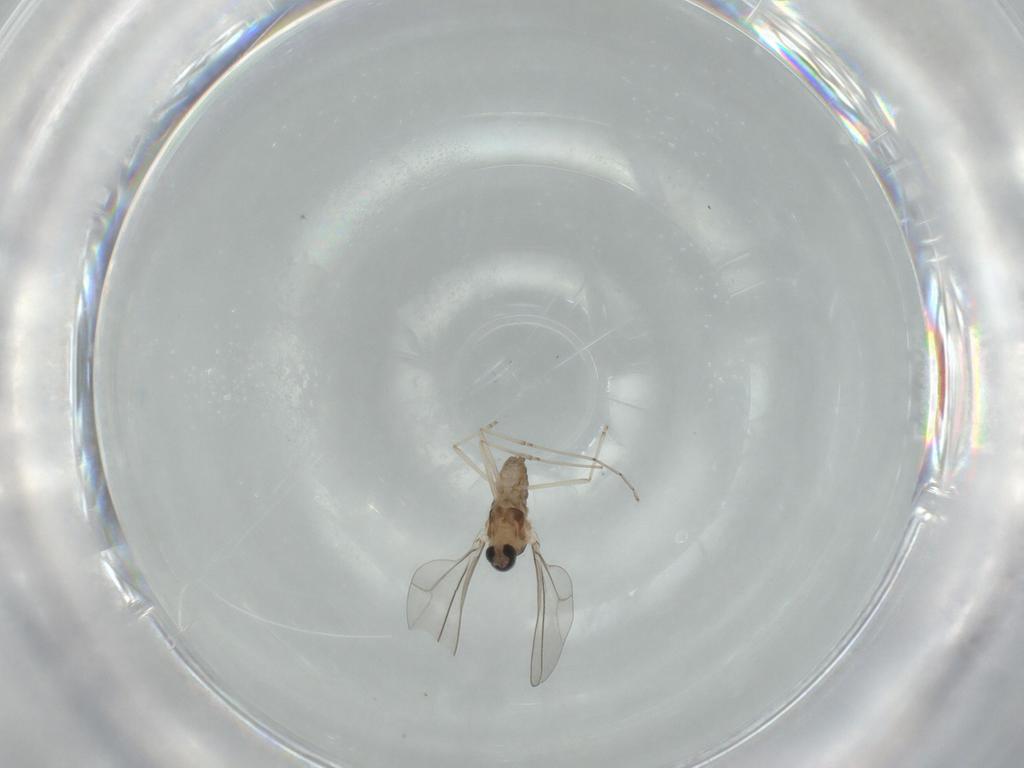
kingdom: Animalia
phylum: Arthropoda
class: Insecta
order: Diptera
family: Cecidomyiidae
